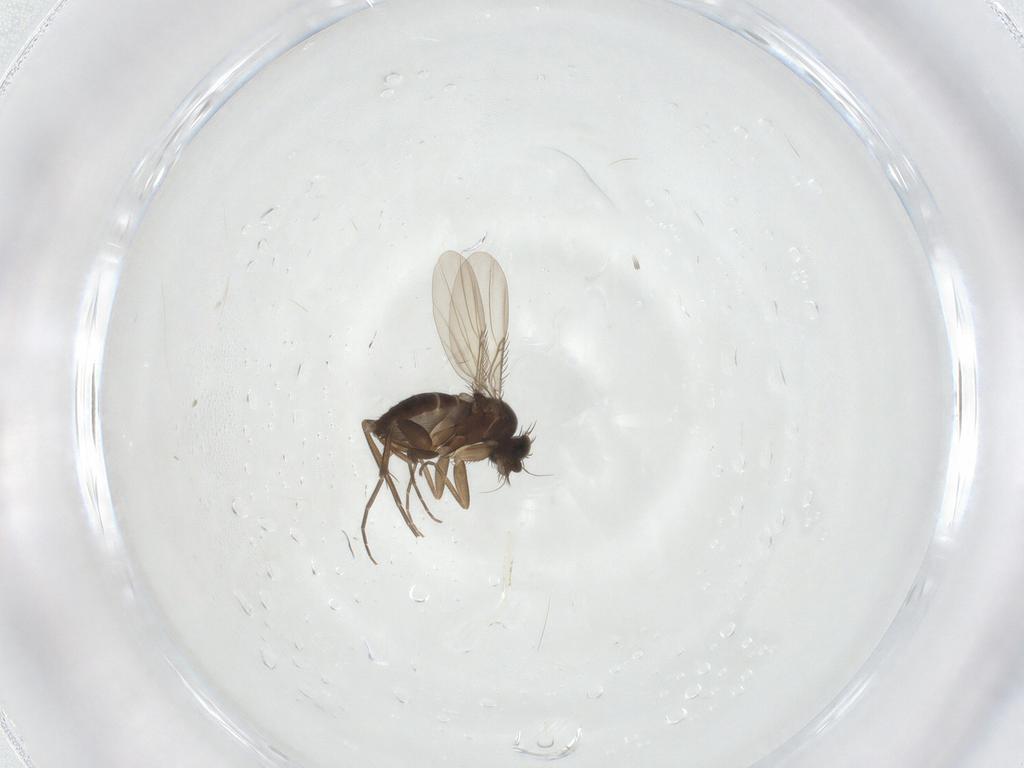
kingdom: Animalia
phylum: Arthropoda
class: Insecta
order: Diptera
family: Phoridae
